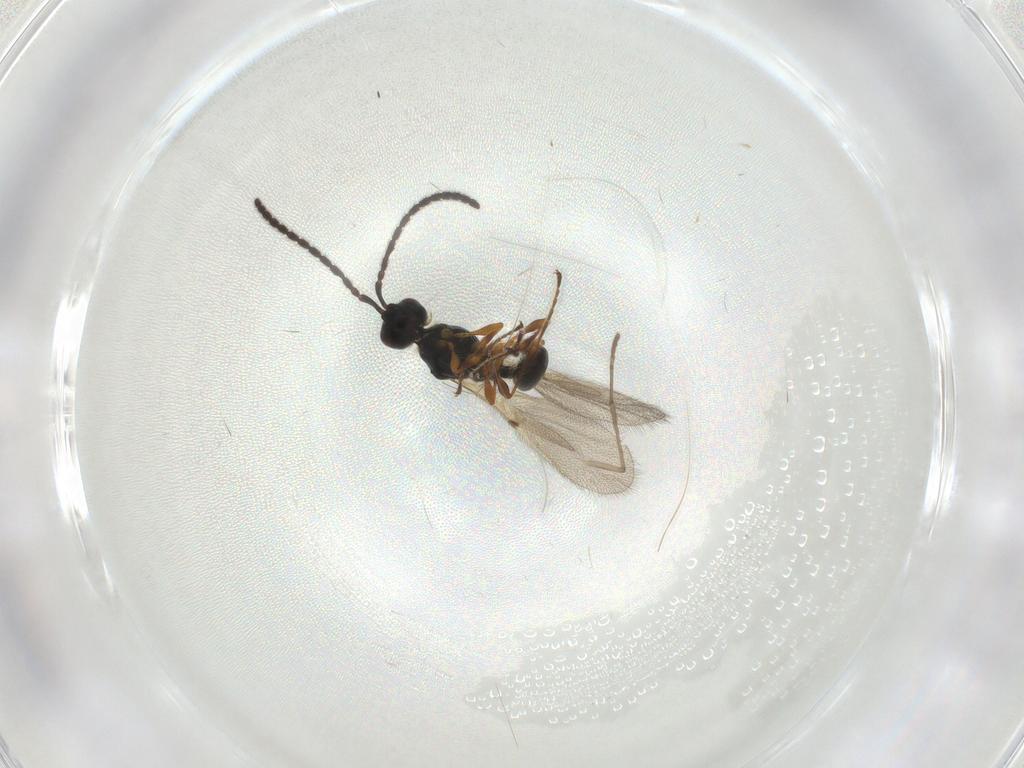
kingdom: Animalia
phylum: Arthropoda
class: Insecta
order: Hymenoptera
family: Diapriidae
